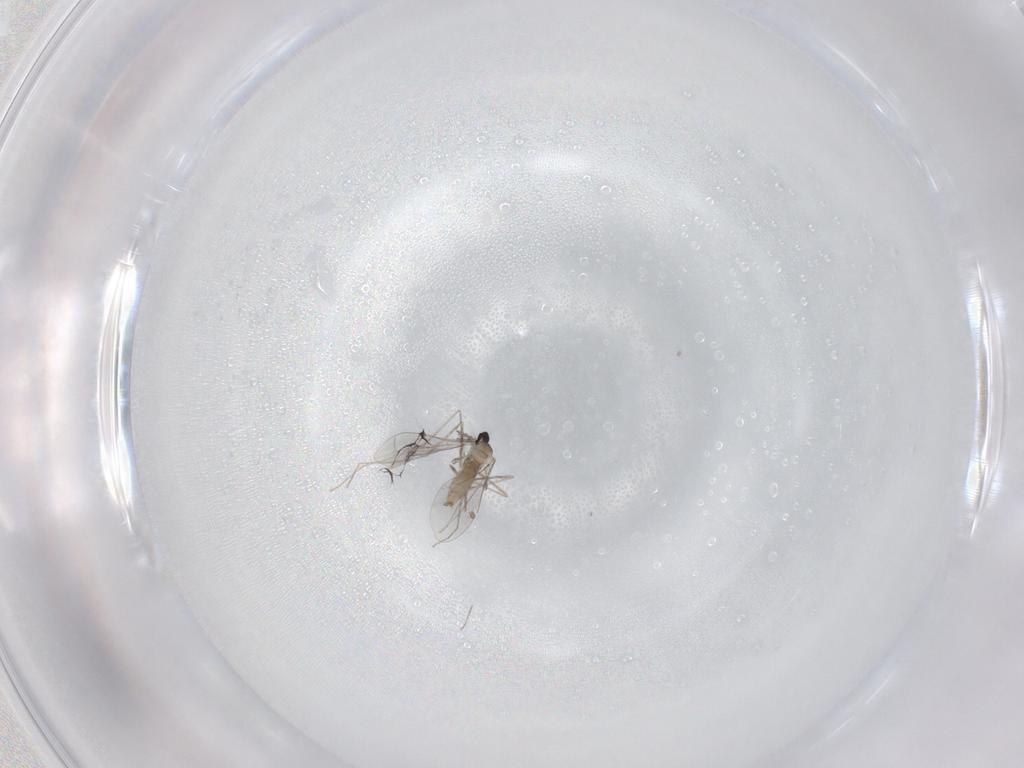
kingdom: Animalia
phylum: Arthropoda
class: Insecta
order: Diptera
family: Cecidomyiidae
